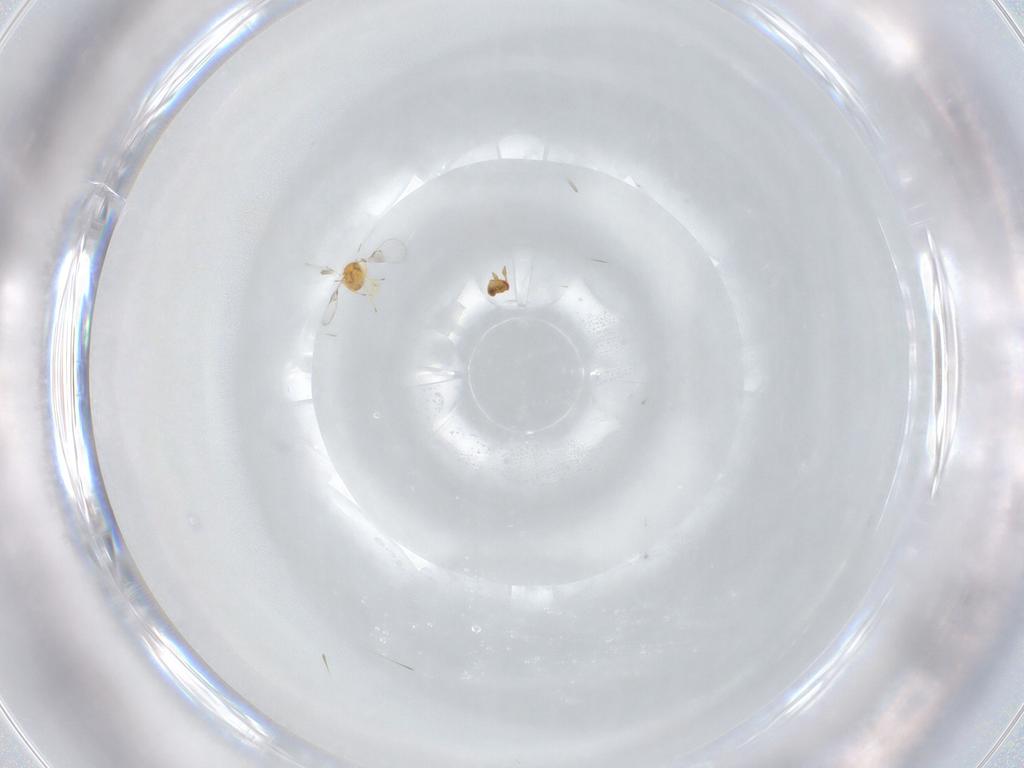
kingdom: Animalia
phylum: Arthropoda
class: Insecta
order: Hymenoptera
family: Trichogrammatidae
